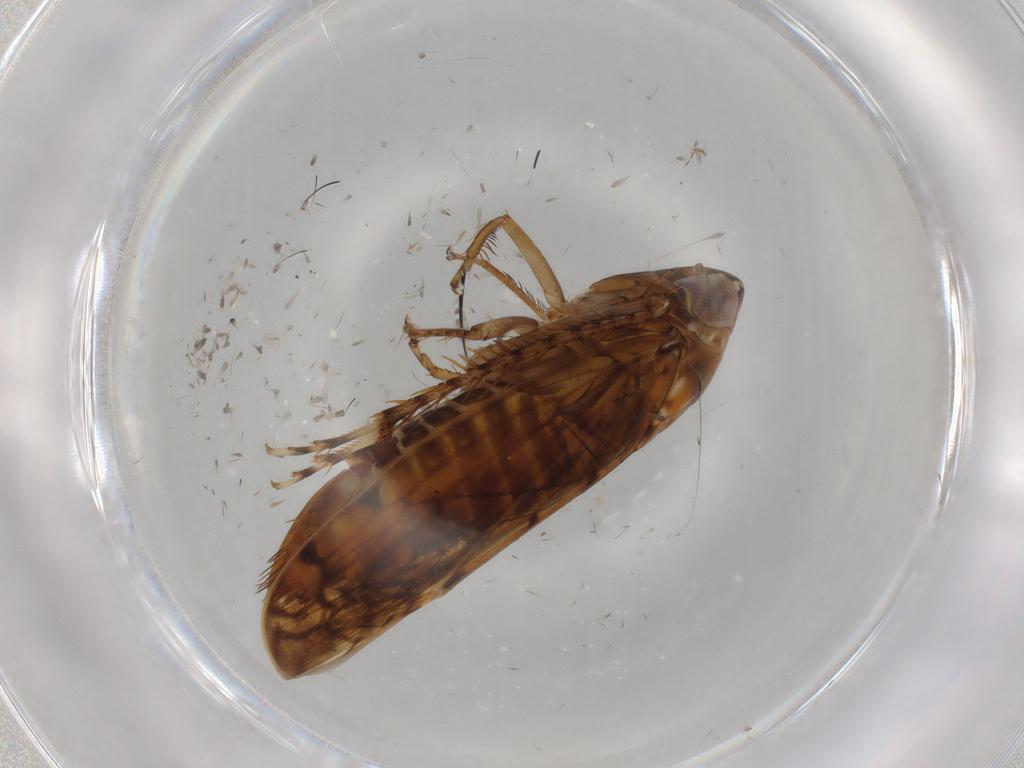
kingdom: Animalia
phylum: Arthropoda
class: Insecta
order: Hemiptera
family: Cicadellidae
